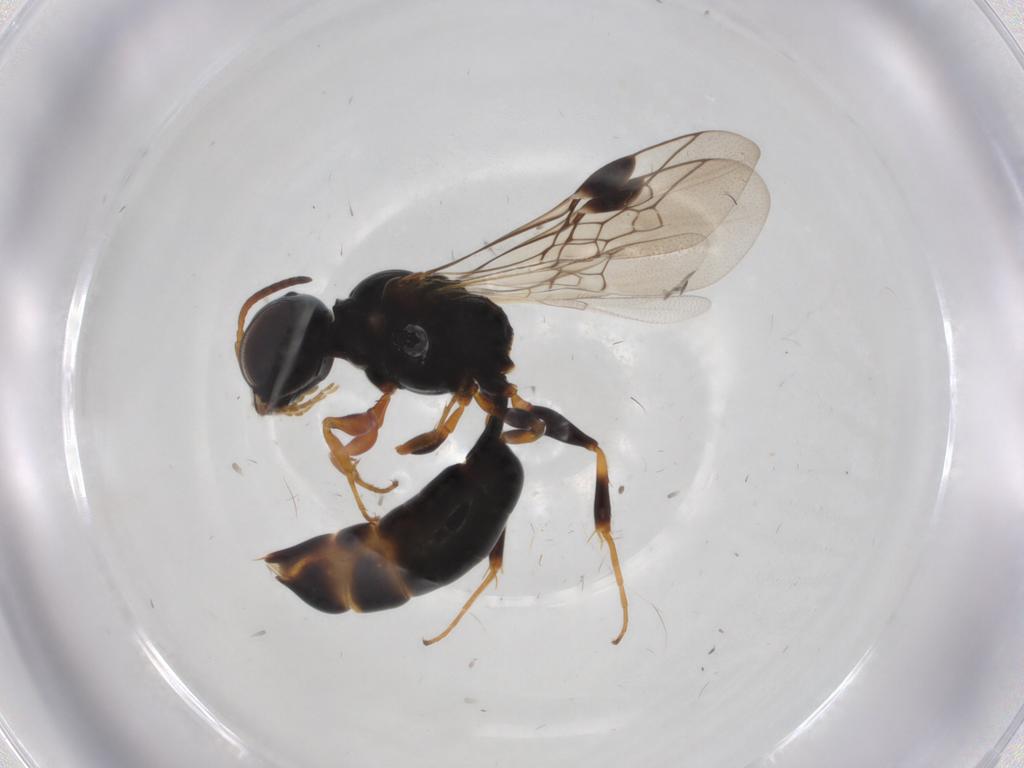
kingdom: Animalia
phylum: Arthropoda
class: Insecta
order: Hymenoptera
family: Pemphredonidae
